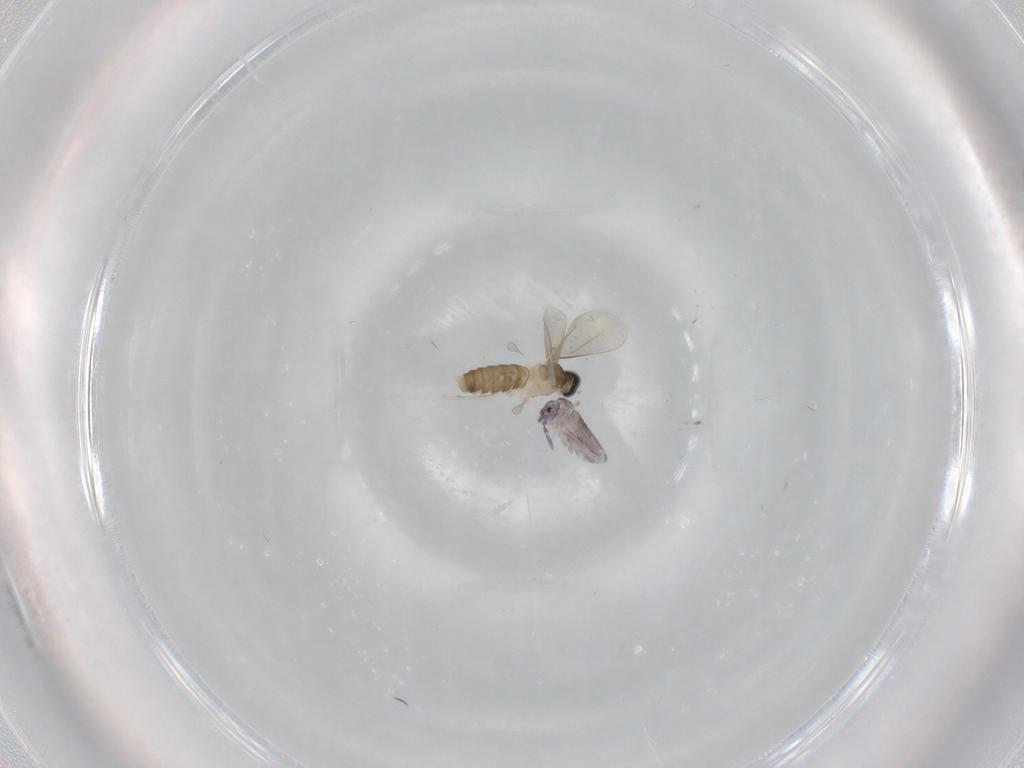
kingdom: Animalia
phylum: Arthropoda
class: Insecta
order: Diptera
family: Cecidomyiidae
